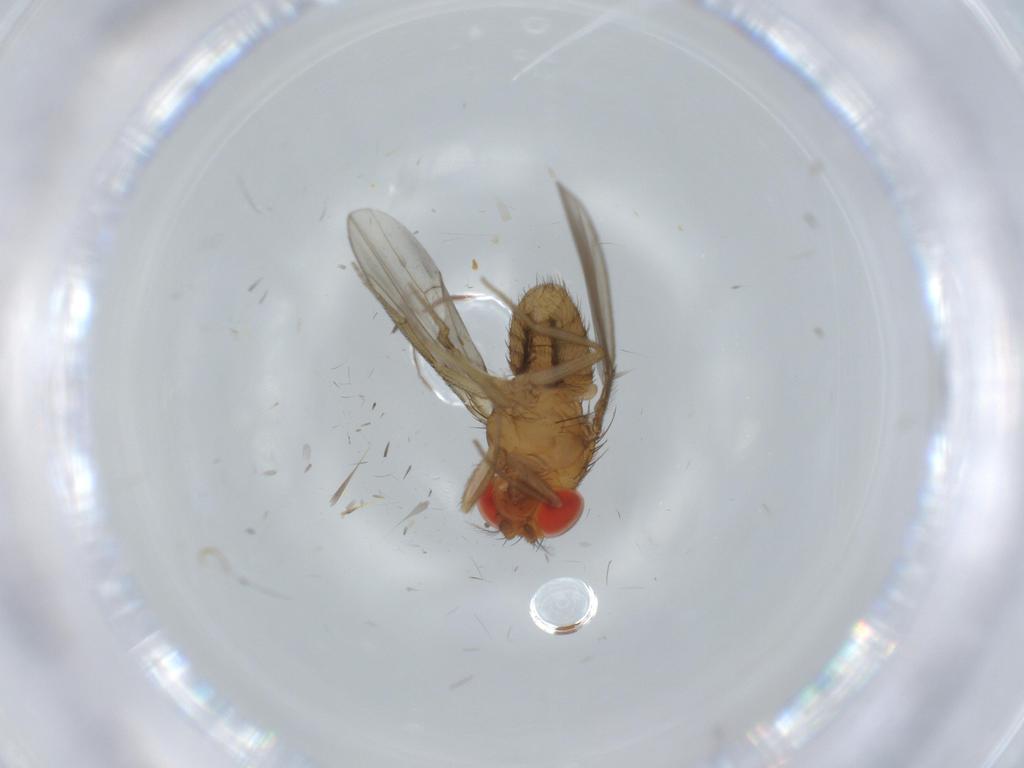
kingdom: Animalia
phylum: Arthropoda
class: Insecta
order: Diptera
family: Drosophilidae
